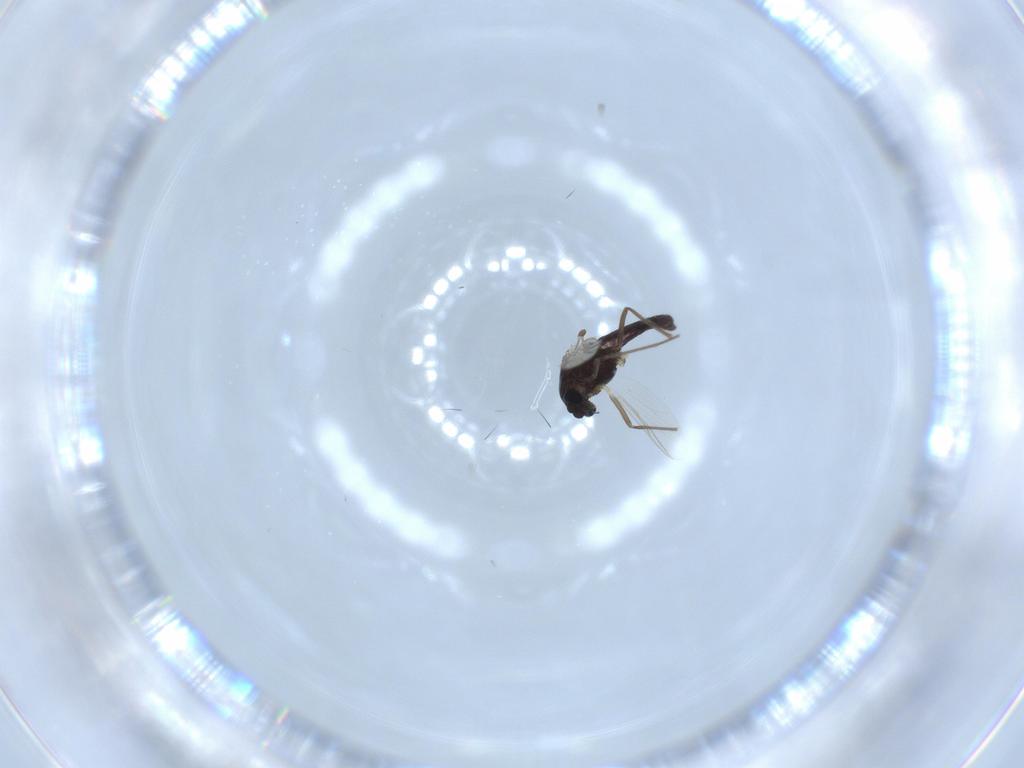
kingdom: Animalia
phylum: Arthropoda
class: Insecta
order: Diptera
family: Chironomidae
